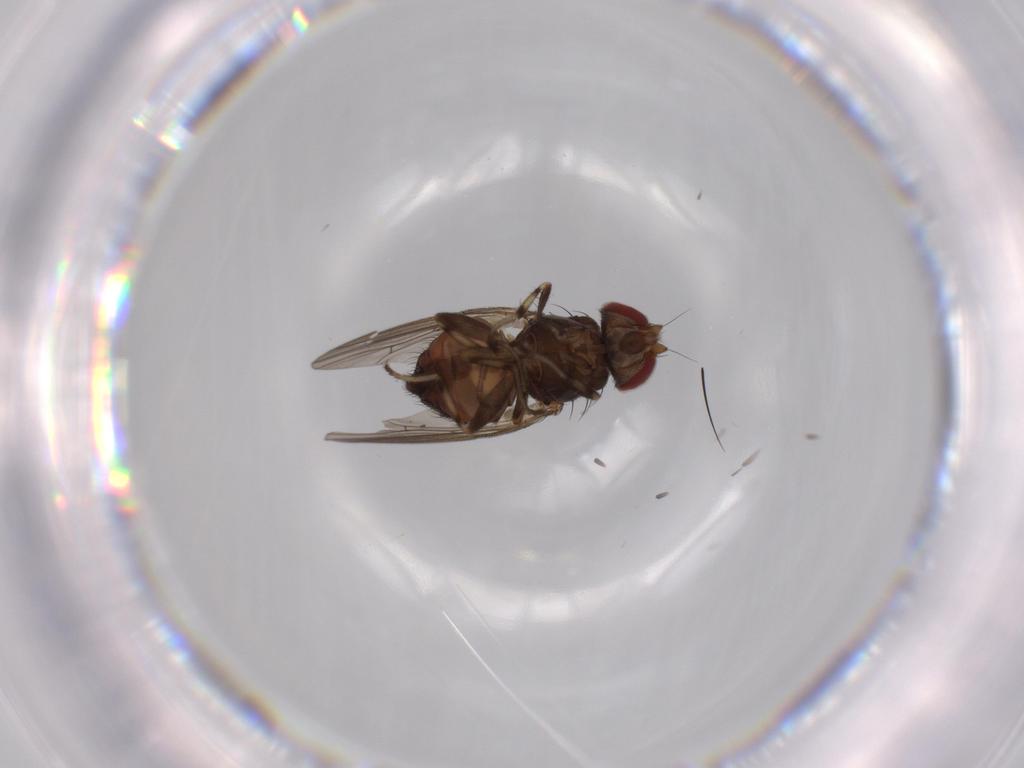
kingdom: Animalia
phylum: Arthropoda
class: Insecta
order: Diptera
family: Heleomyzidae
